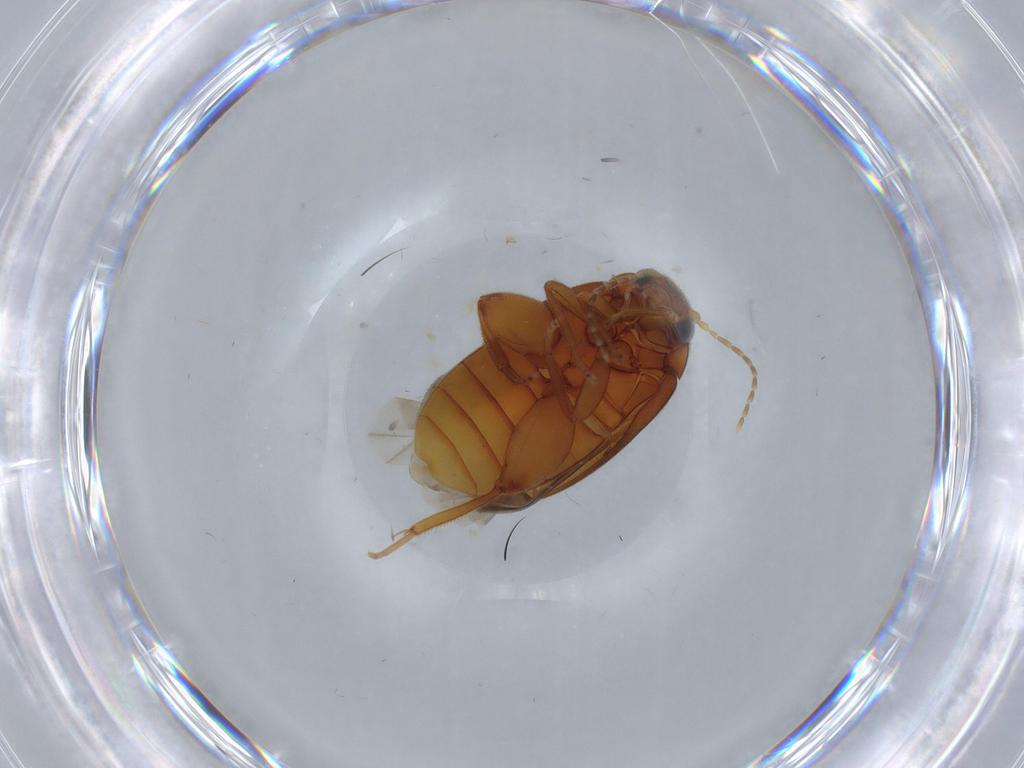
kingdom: Animalia
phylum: Arthropoda
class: Insecta
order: Coleoptera
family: Scirtidae
